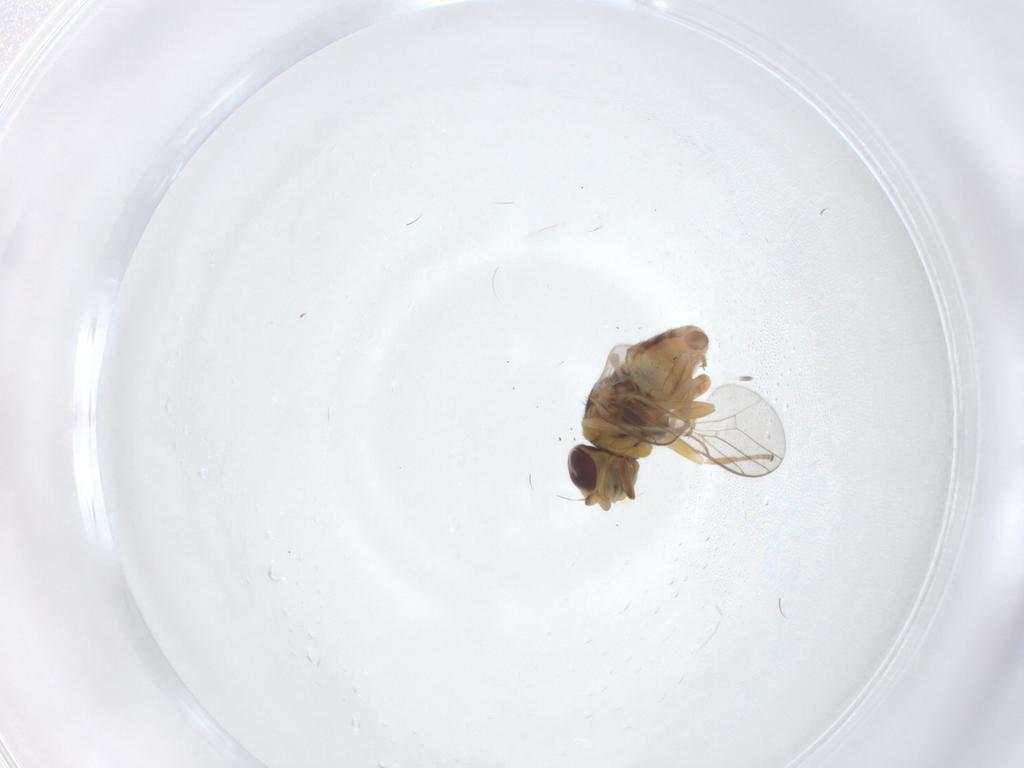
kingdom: Animalia
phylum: Arthropoda
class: Insecta
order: Diptera
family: Chloropidae
